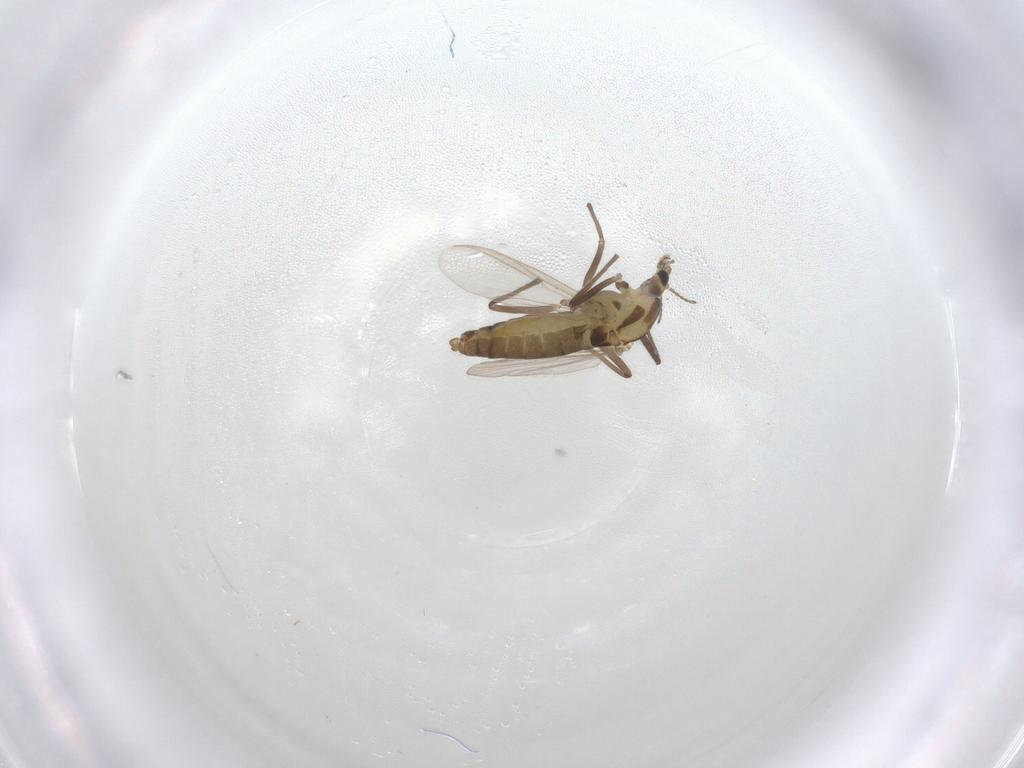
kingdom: Animalia
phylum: Arthropoda
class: Insecta
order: Diptera
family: Chironomidae
